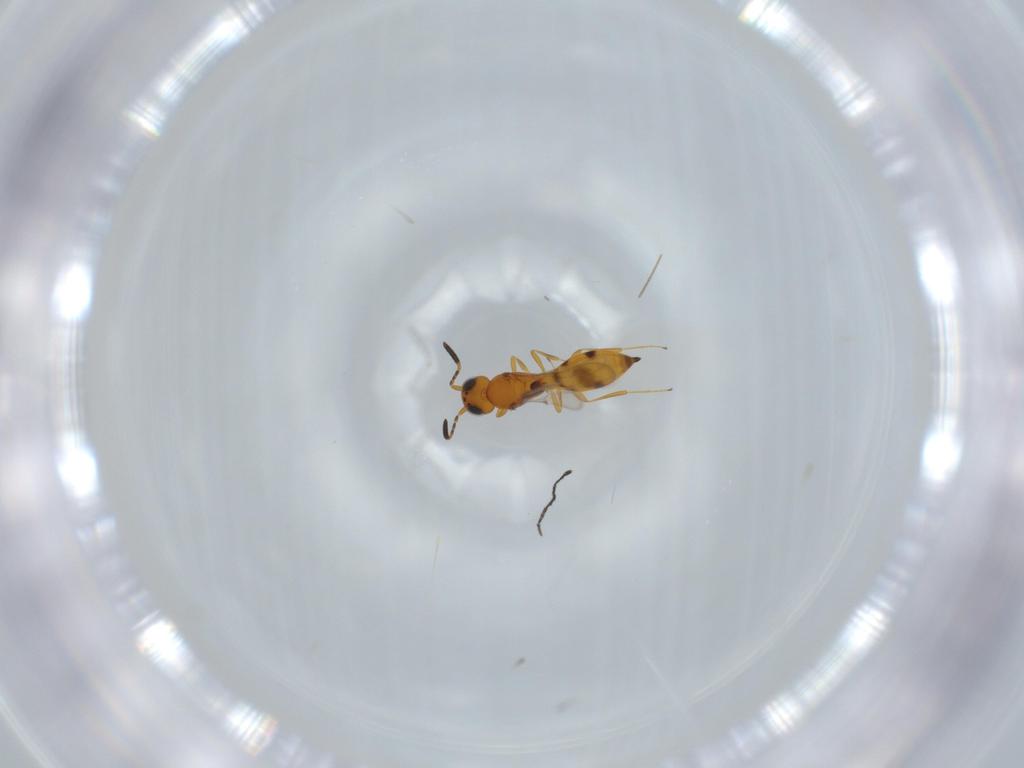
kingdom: Animalia
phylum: Arthropoda
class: Insecta
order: Hymenoptera
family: Scelionidae
